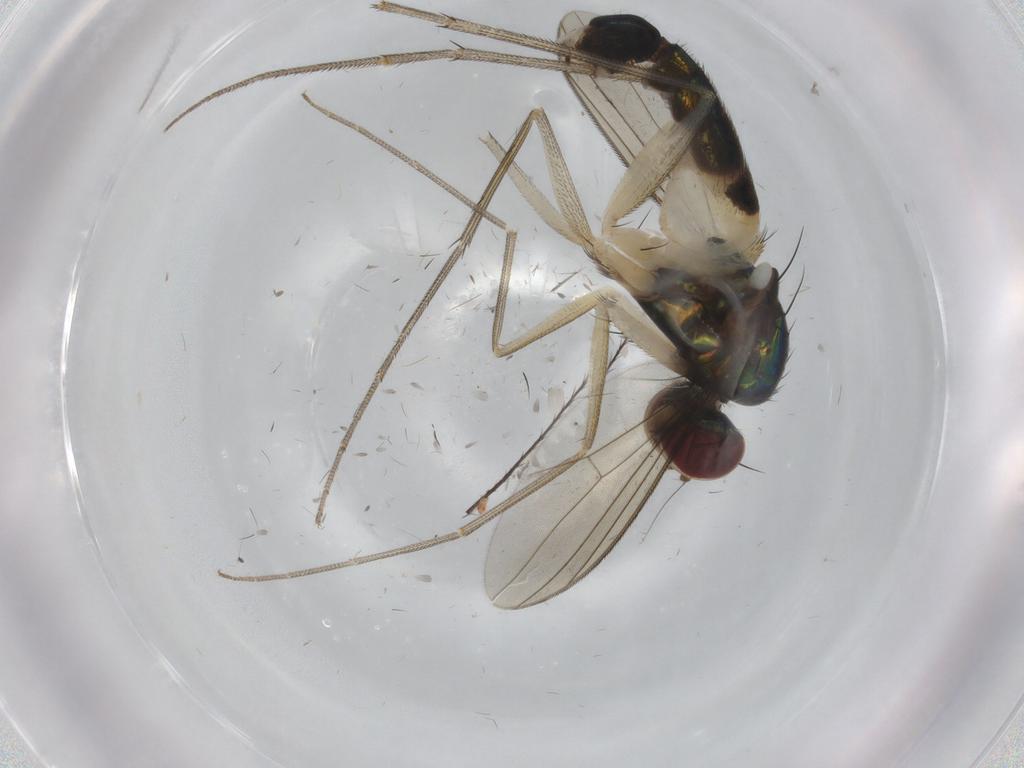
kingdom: Animalia
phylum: Arthropoda
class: Insecta
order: Diptera
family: Dolichopodidae
